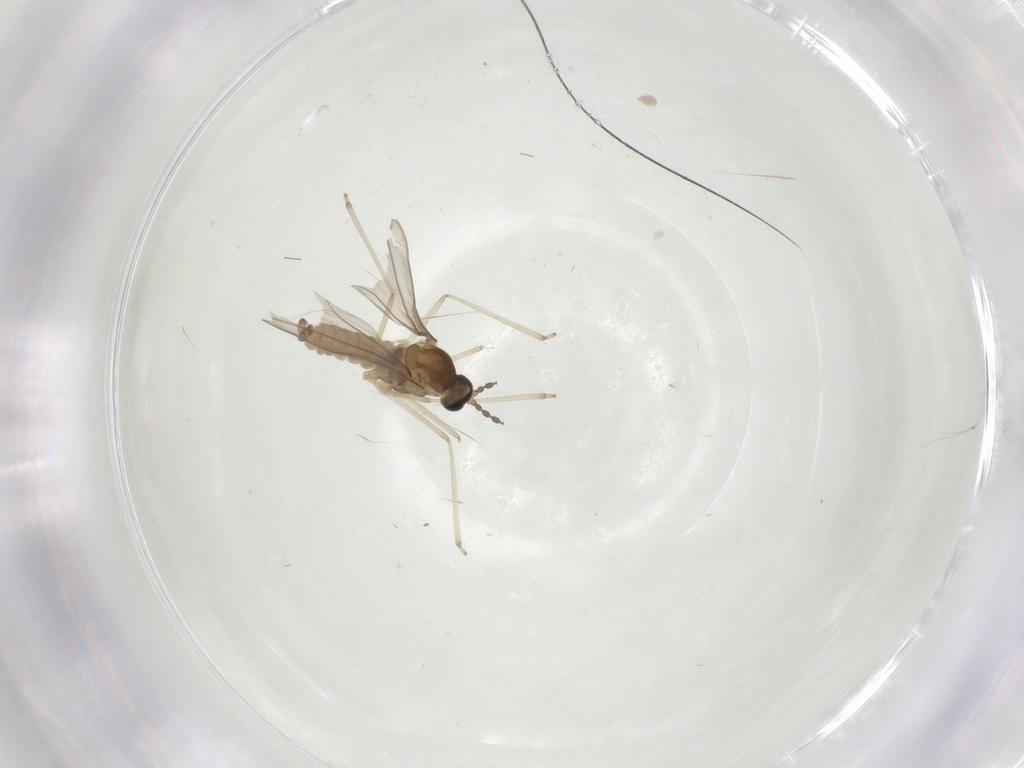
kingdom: Animalia
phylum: Arthropoda
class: Insecta
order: Diptera
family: Cecidomyiidae
